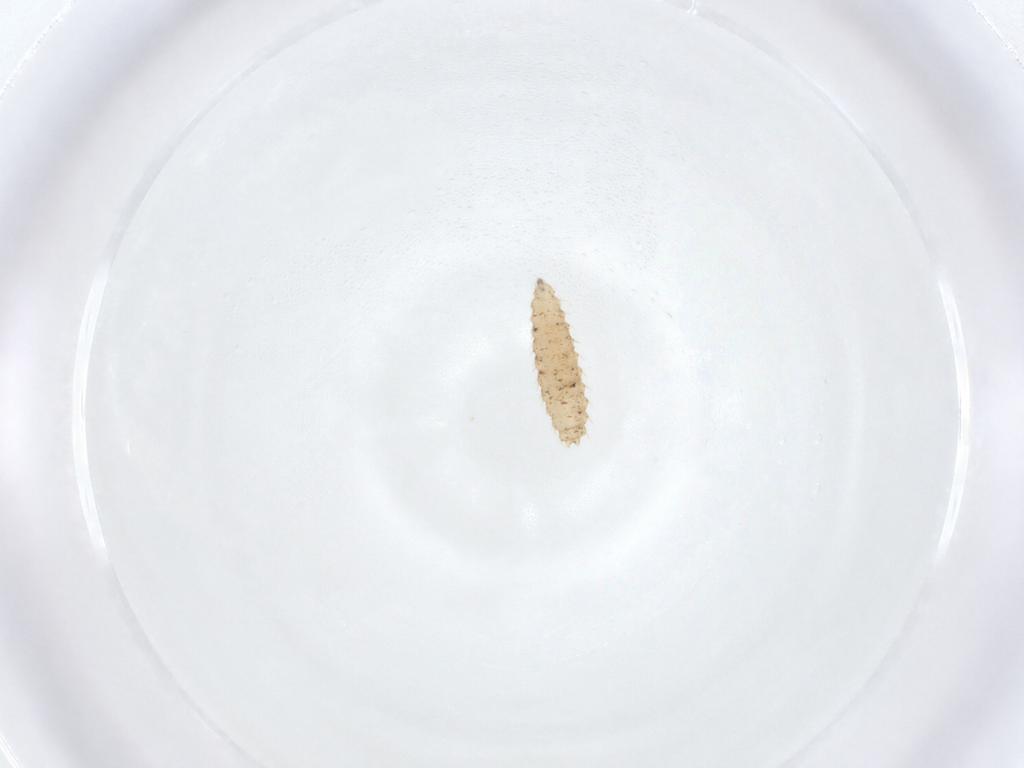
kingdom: Animalia
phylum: Arthropoda
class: Insecta
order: Diptera
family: Cecidomyiidae
